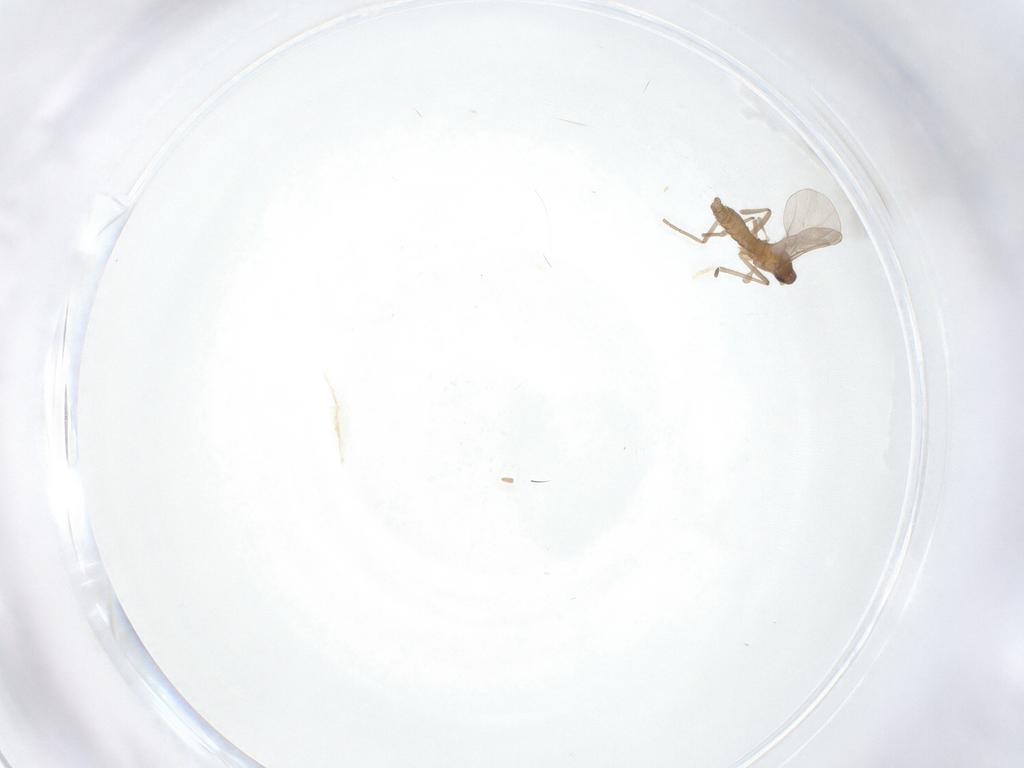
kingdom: Animalia
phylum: Arthropoda
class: Insecta
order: Diptera
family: Cecidomyiidae
